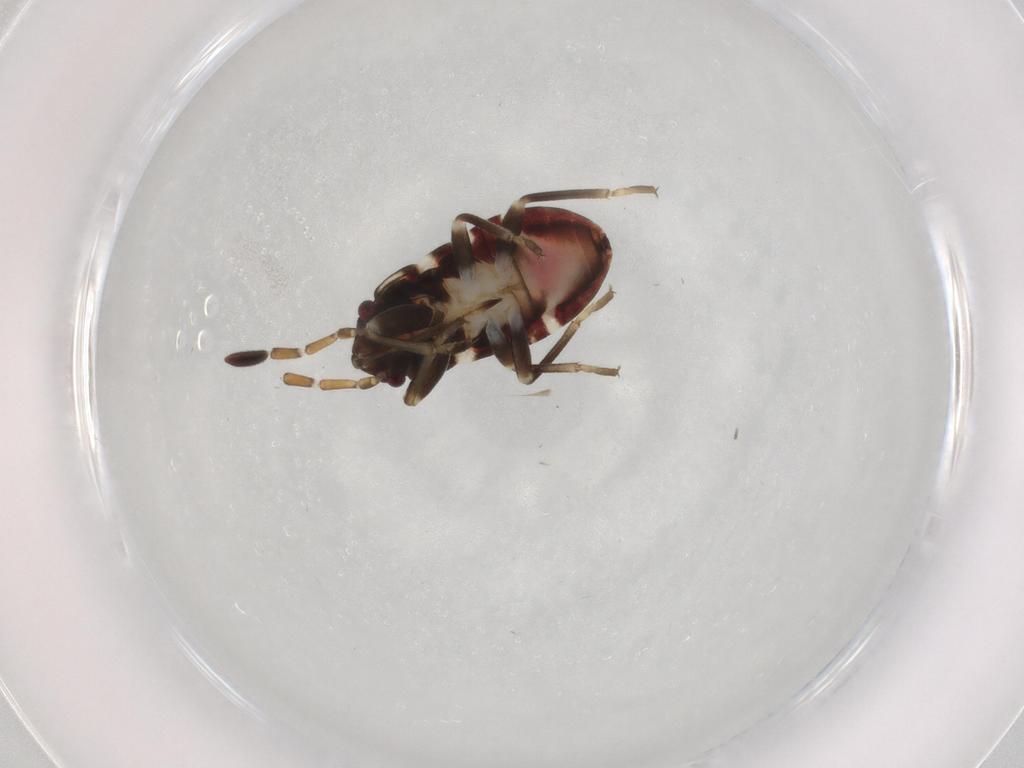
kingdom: Animalia
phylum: Arthropoda
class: Insecta
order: Hemiptera
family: Rhyparochromidae
